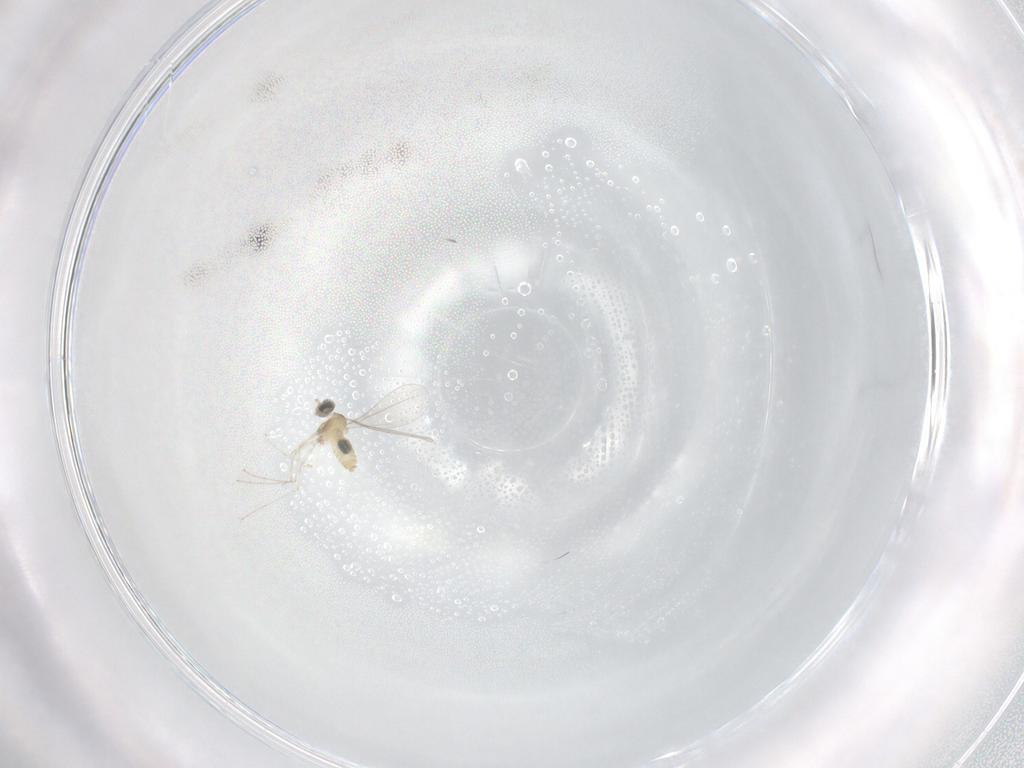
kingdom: Animalia
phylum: Arthropoda
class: Insecta
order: Diptera
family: Cecidomyiidae
